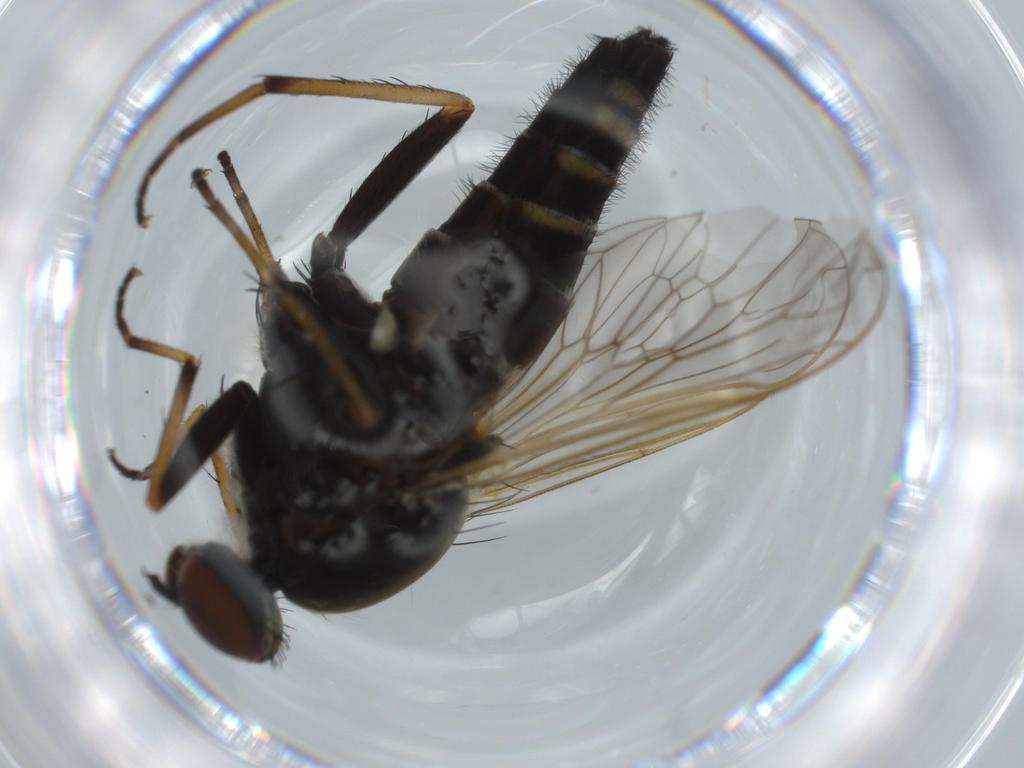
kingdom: Animalia
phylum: Arthropoda
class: Insecta
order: Diptera
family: Therevidae
